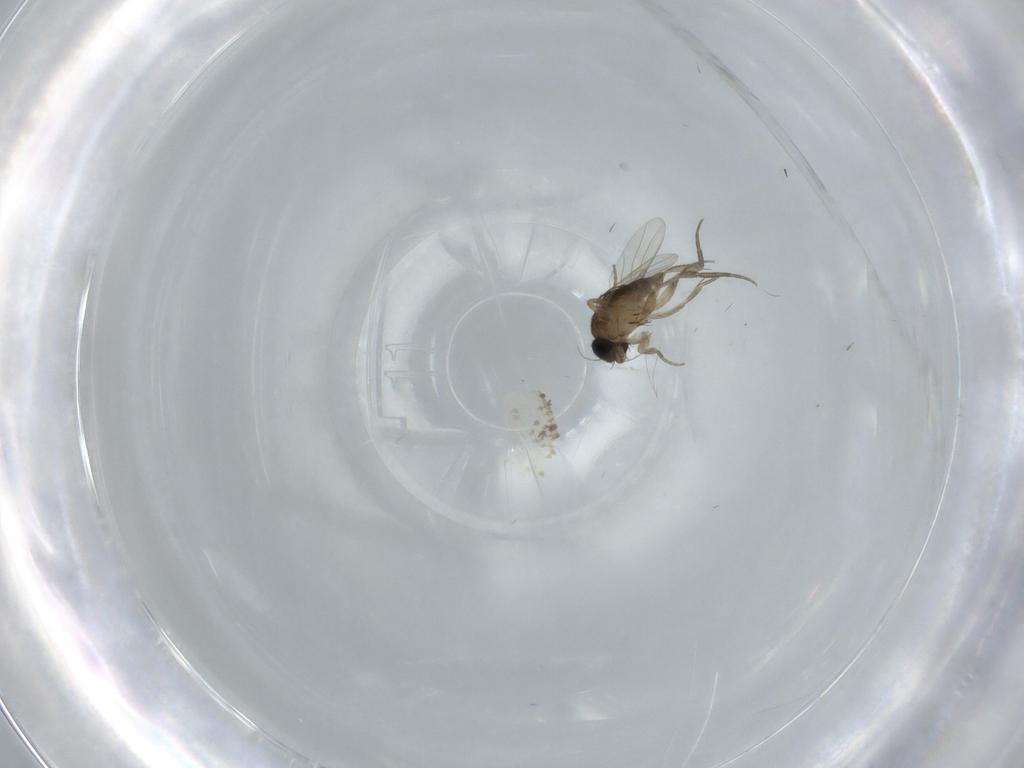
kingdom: Animalia
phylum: Arthropoda
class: Insecta
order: Diptera
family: Phoridae
